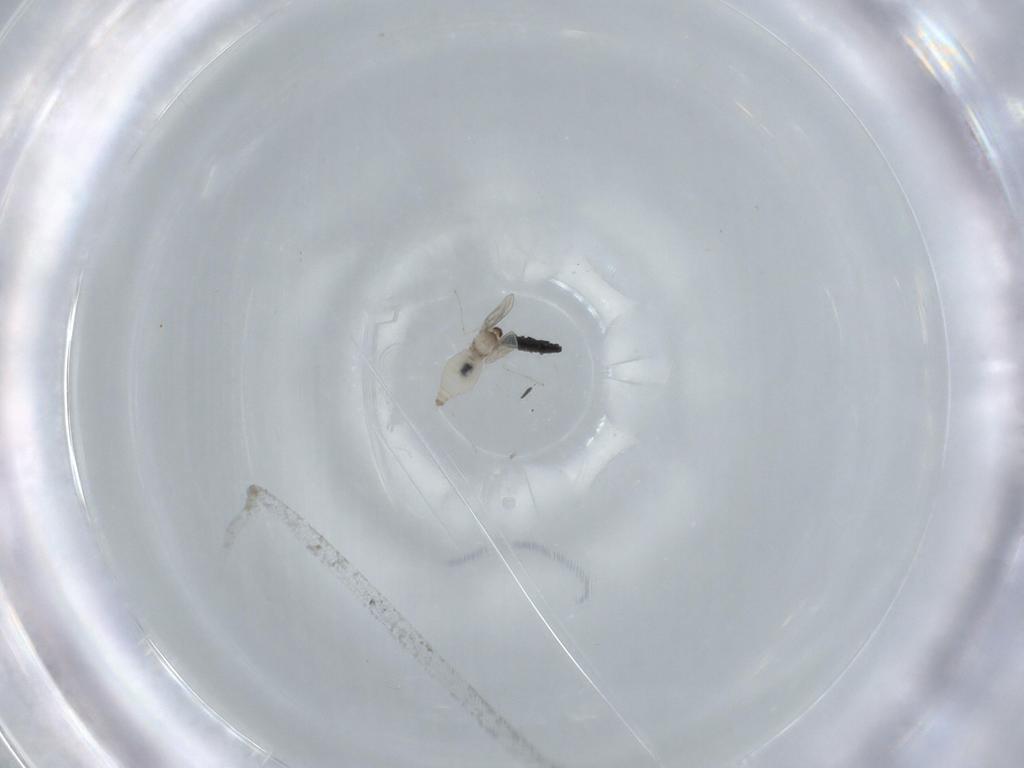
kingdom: Animalia
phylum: Arthropoda
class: Insecta
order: Diptera
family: Cecidomyiidae
